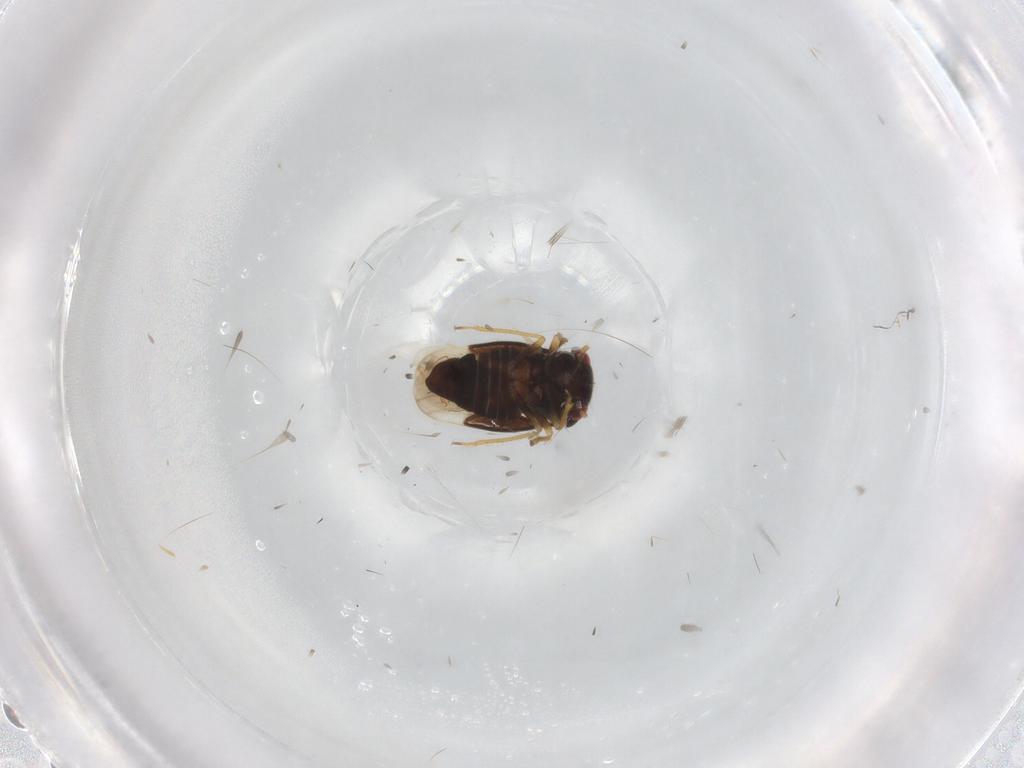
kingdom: Animalia
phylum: Arthropoda
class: Insecta
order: Hemiptera
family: Schizopteridae
